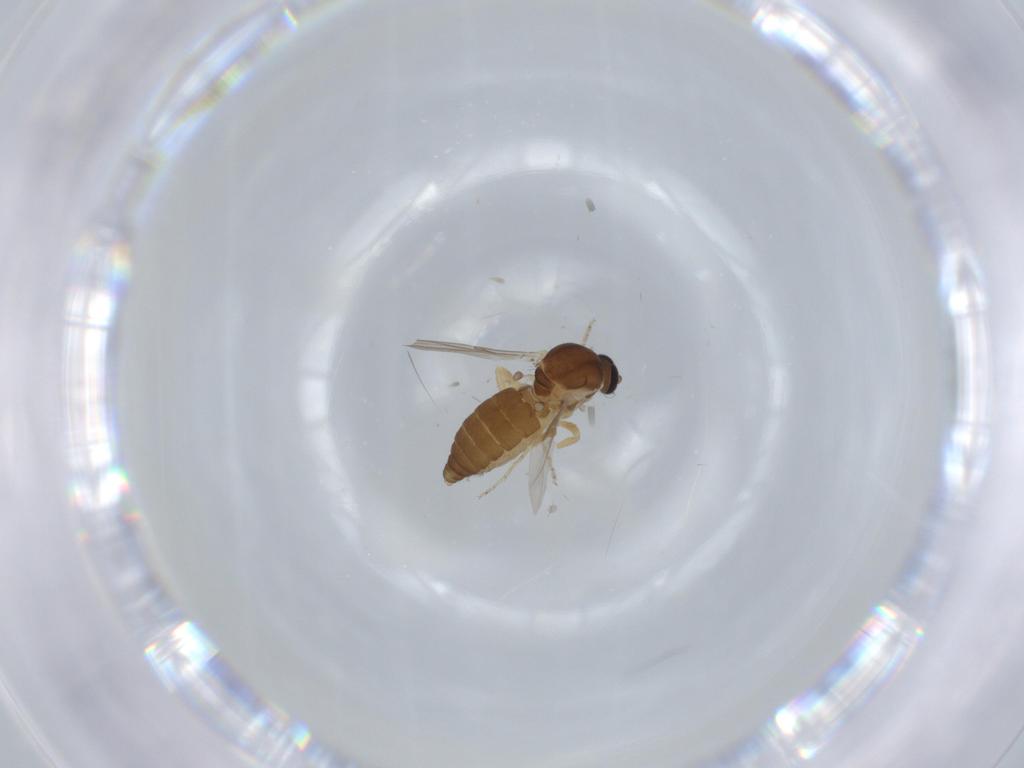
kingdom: Animalia
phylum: Arthropoda
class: Insecta
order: Diptera
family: Ceratopogonidae
